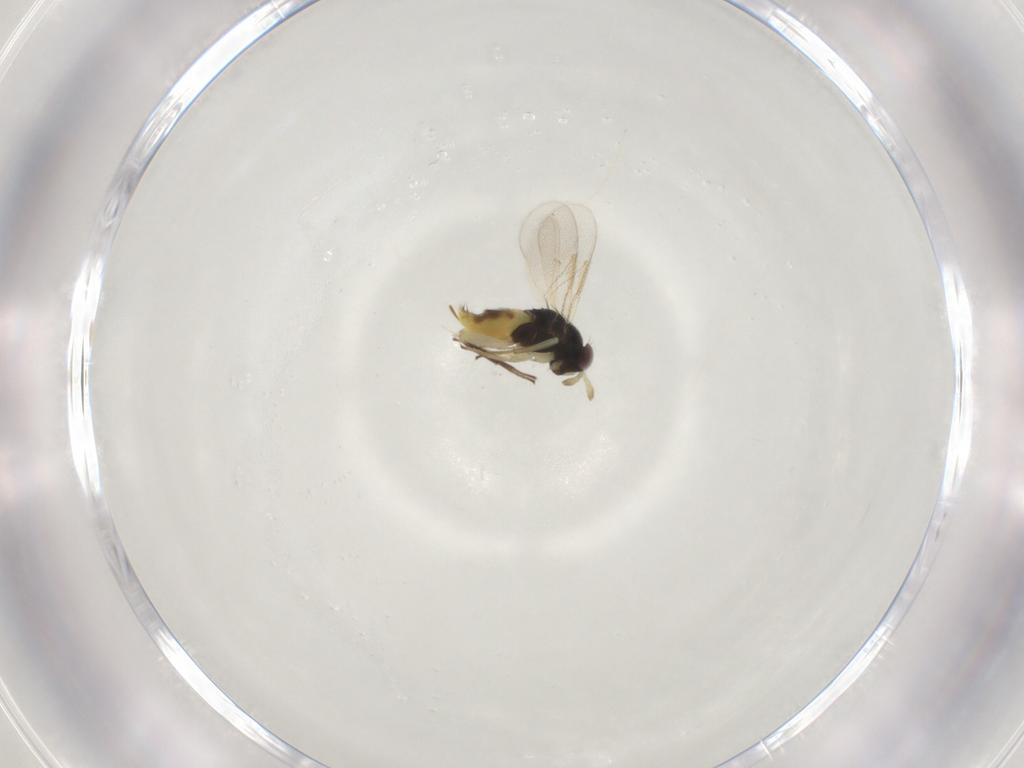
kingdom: Animalia
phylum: Arthropoda
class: Insecta
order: Hymenoptera
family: Aphelinidae
